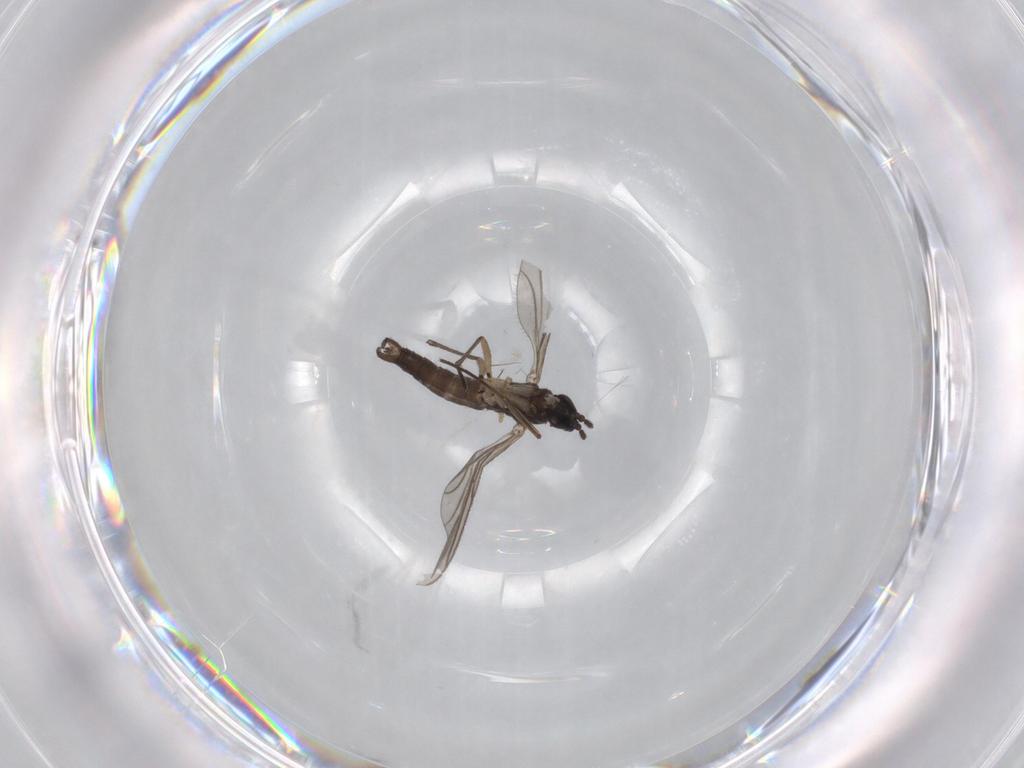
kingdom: Animalia
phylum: Arthropoda
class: Insecta
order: Diptera
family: Sciaridae
